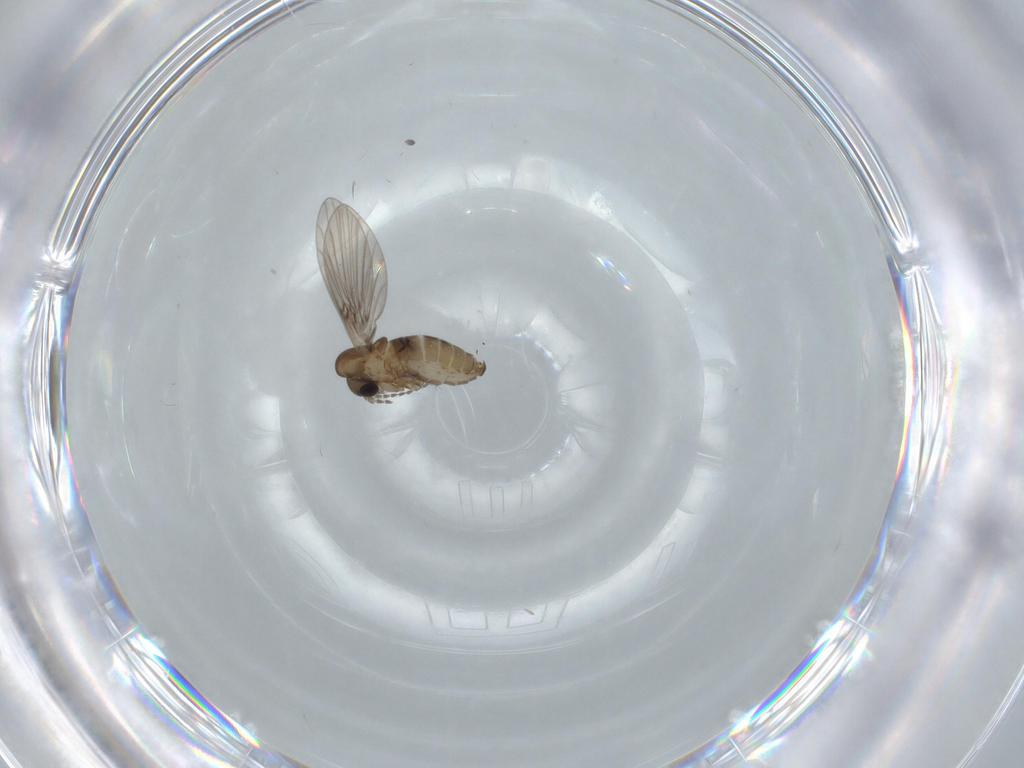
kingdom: Animalia
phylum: Arthropoda
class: Insecta
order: Diptera
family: Psychodidae
